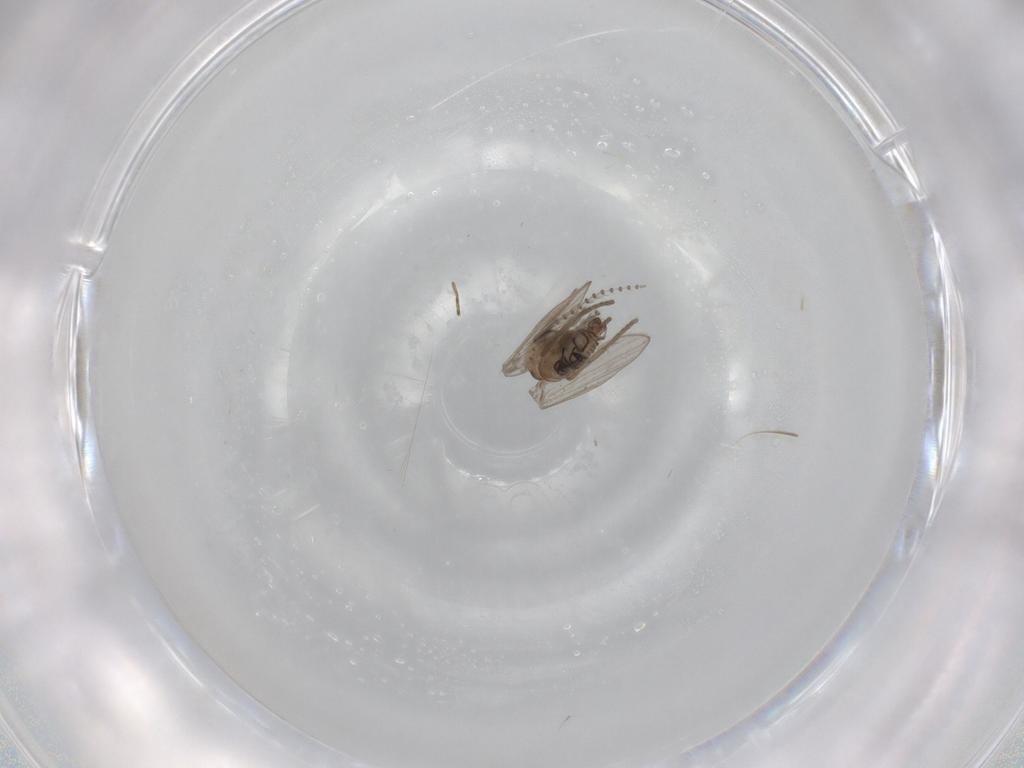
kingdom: Animalia
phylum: Arthropoda
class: Insecta
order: Diptera
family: Psychodidae
